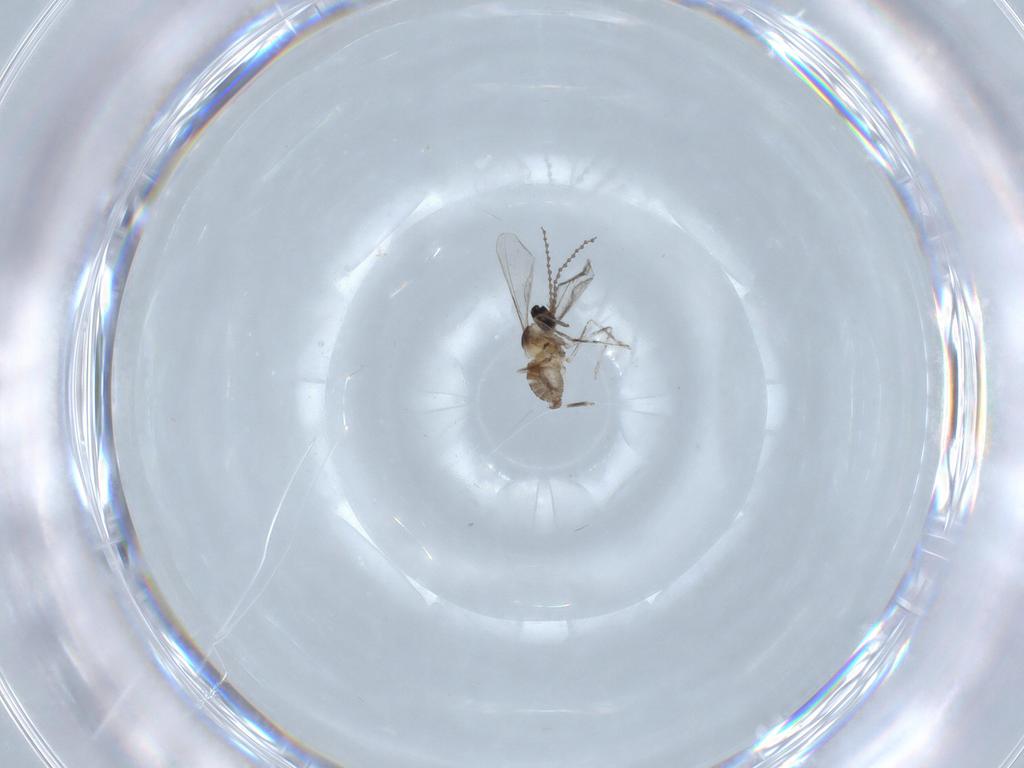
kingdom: Animalia
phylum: Arthropoda
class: Insecta
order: Diptera
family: Cecidomyiidae
